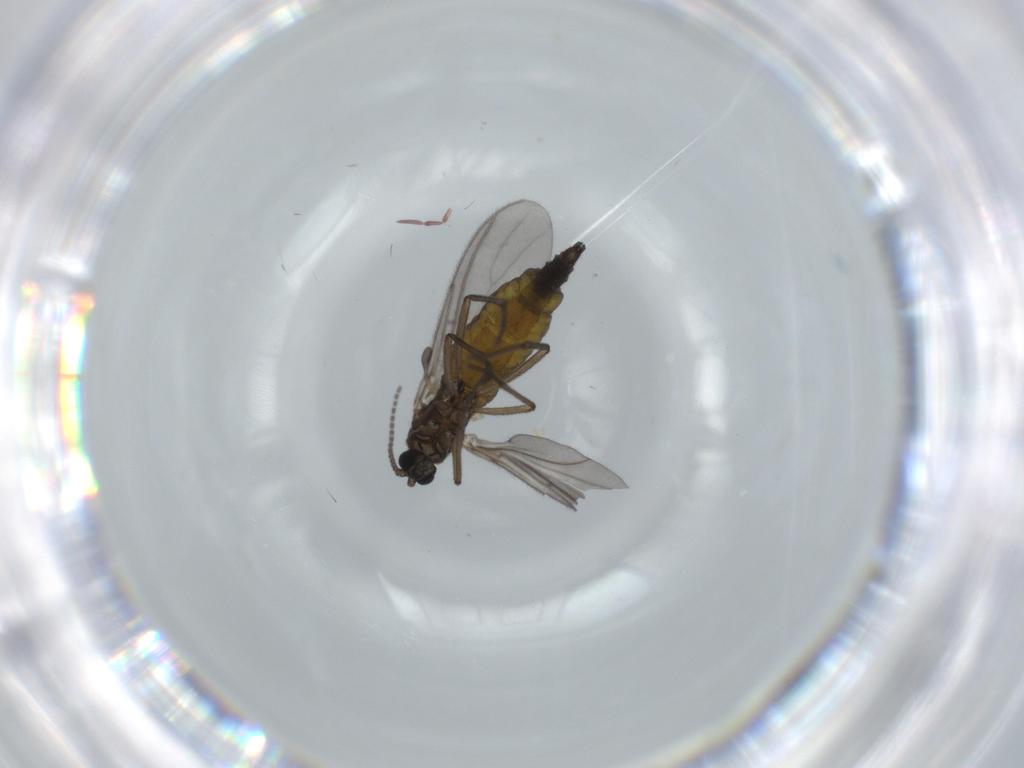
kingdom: Animalia
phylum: Arthropoda
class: Insecta
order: Diptera
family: Sciaridae
